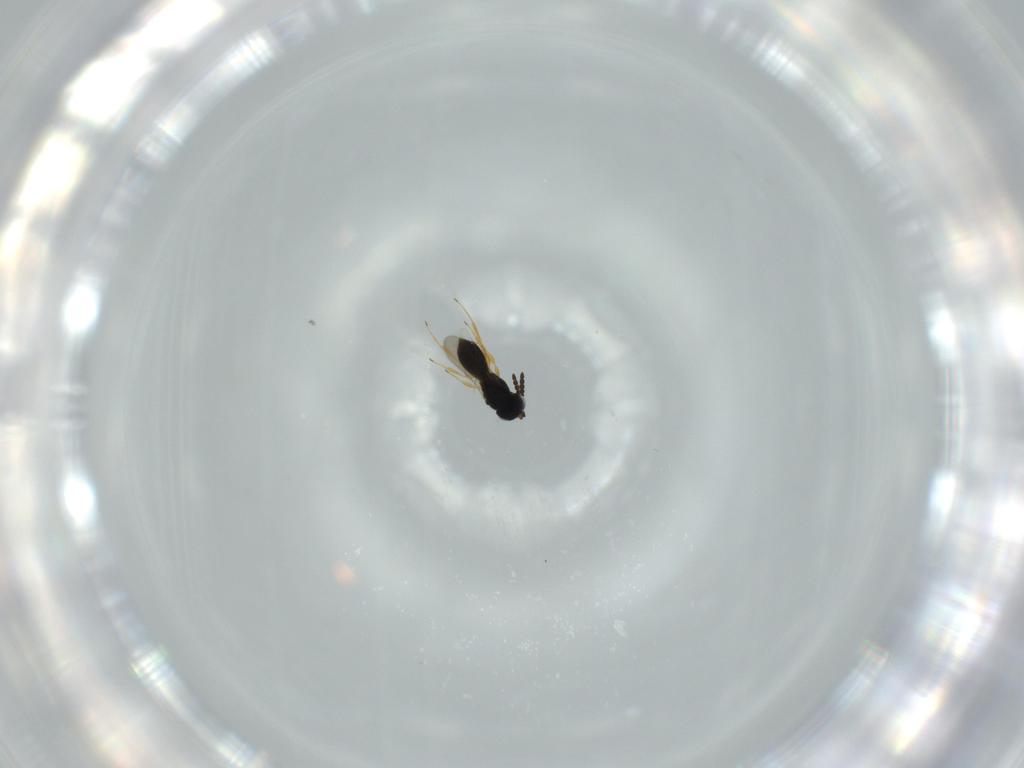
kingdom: Animalia
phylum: Arthropoda
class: Insecta
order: Hymenoptera
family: Scelionidae
